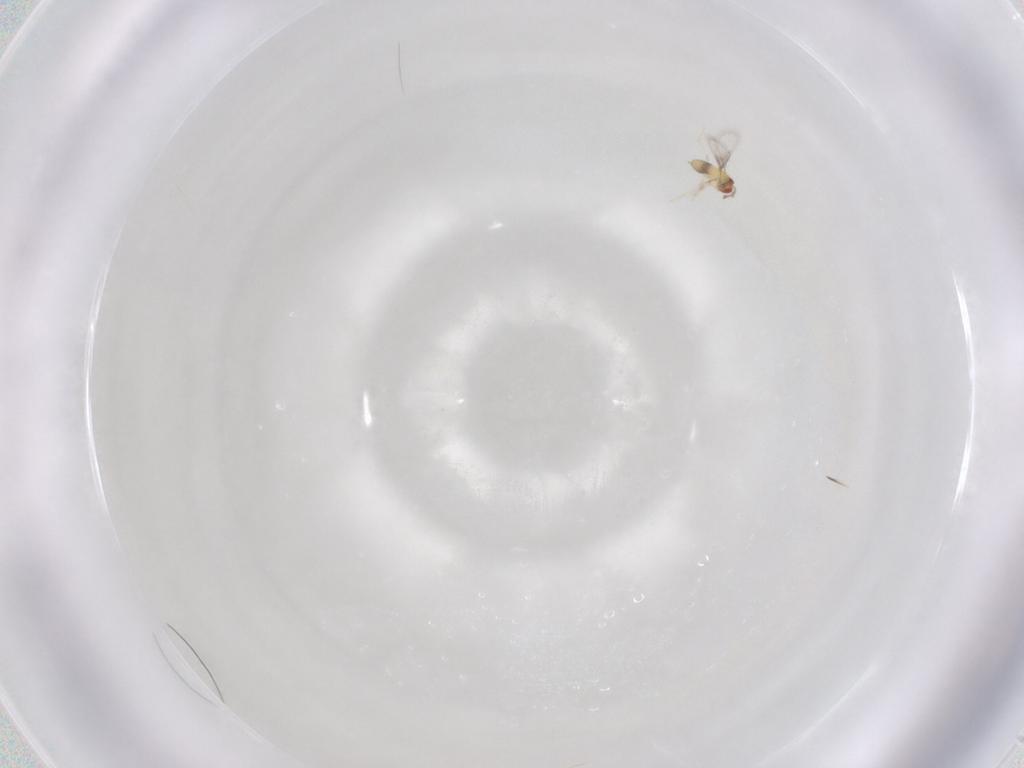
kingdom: Animalia
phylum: Arthropoda
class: Insecta
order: Hymenoptera
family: Trichogrammatidae
